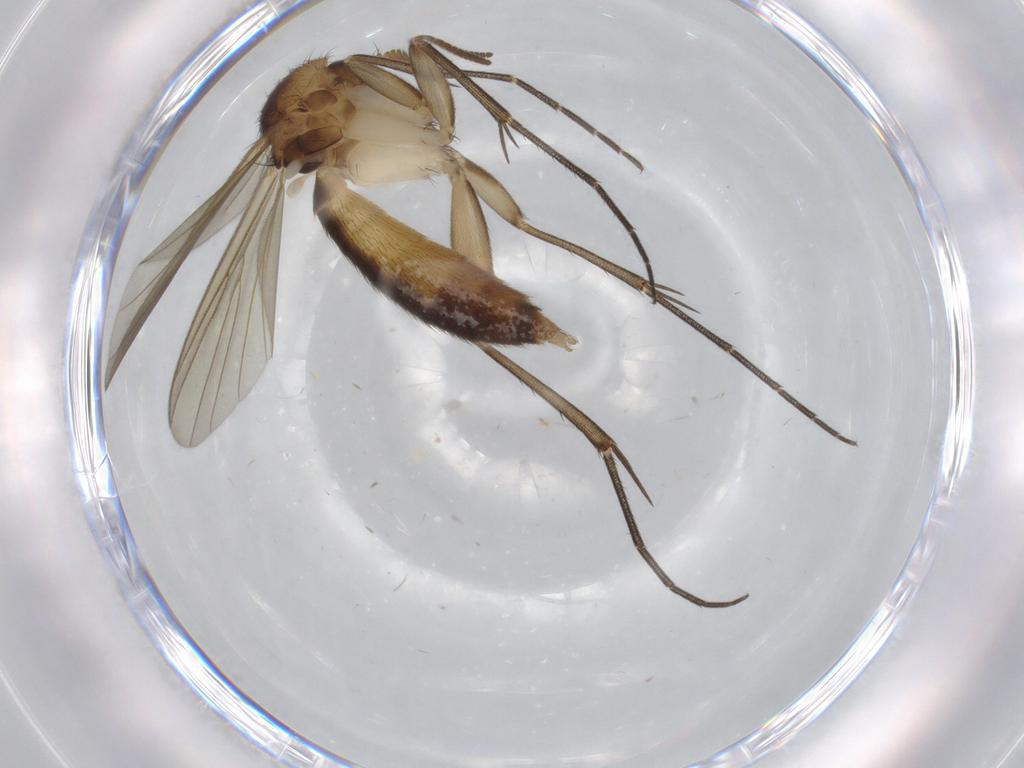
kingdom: Animalia
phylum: Arthropoda
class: Insecta
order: Diptera
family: Mycetophilidae
